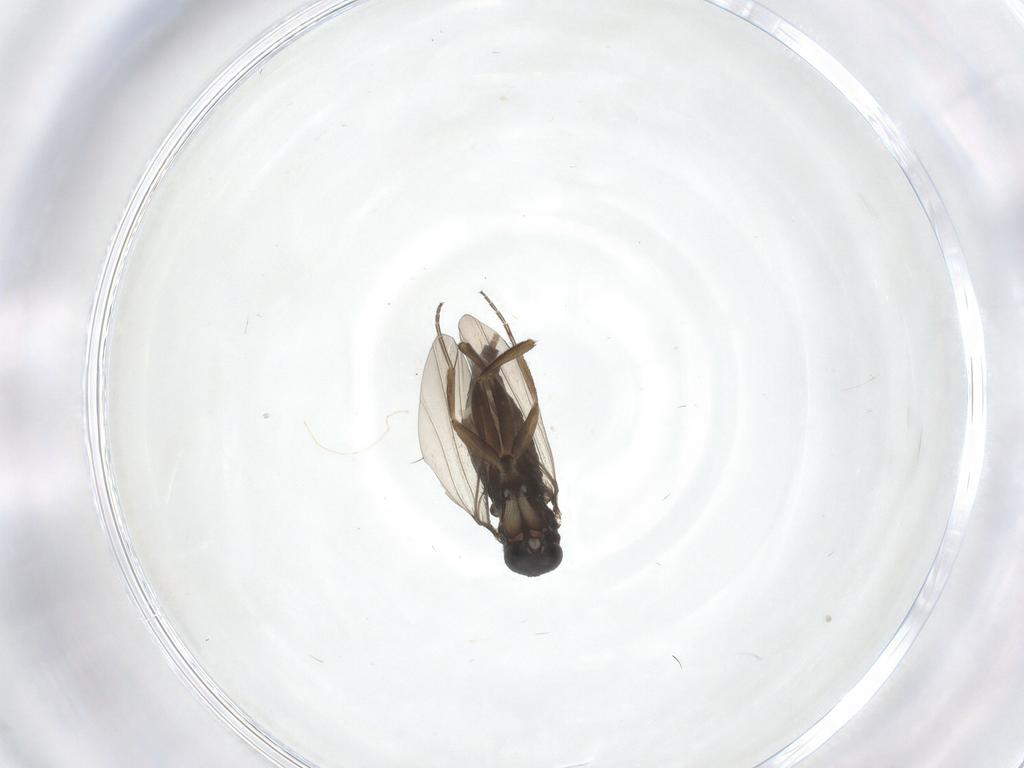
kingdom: Animalia
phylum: Arthropoda
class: Insecta
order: Diptera
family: Phoridae
